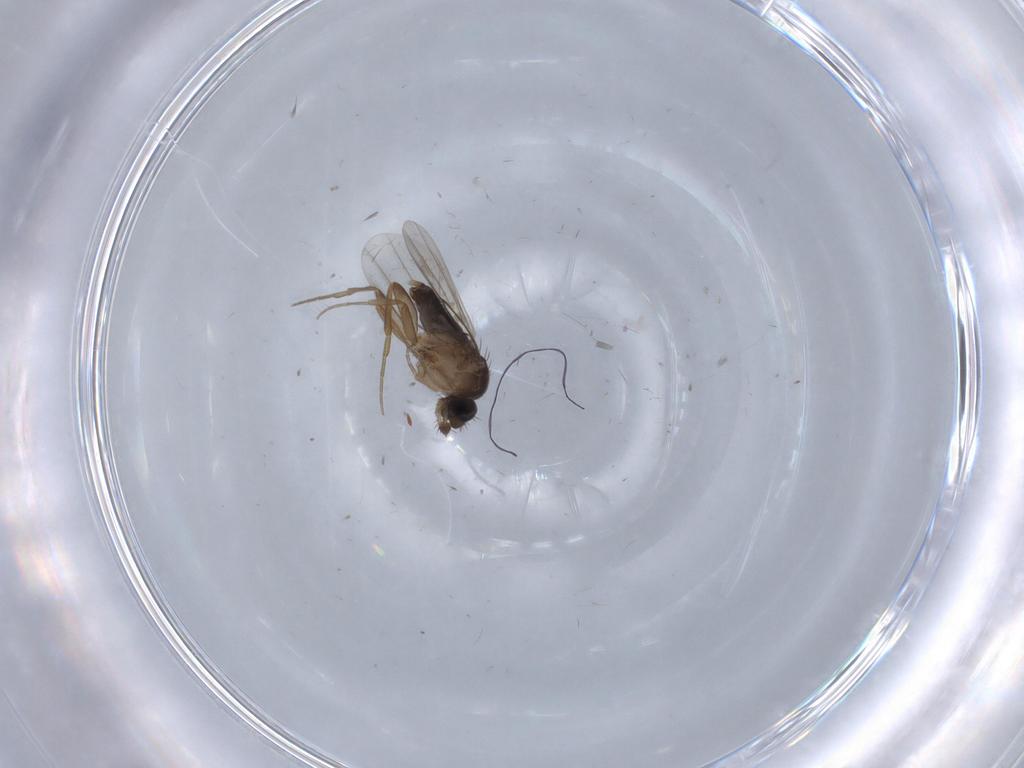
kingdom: Animalia
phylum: Arthropoda
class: Insecta
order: Diptera
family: Phoridae
